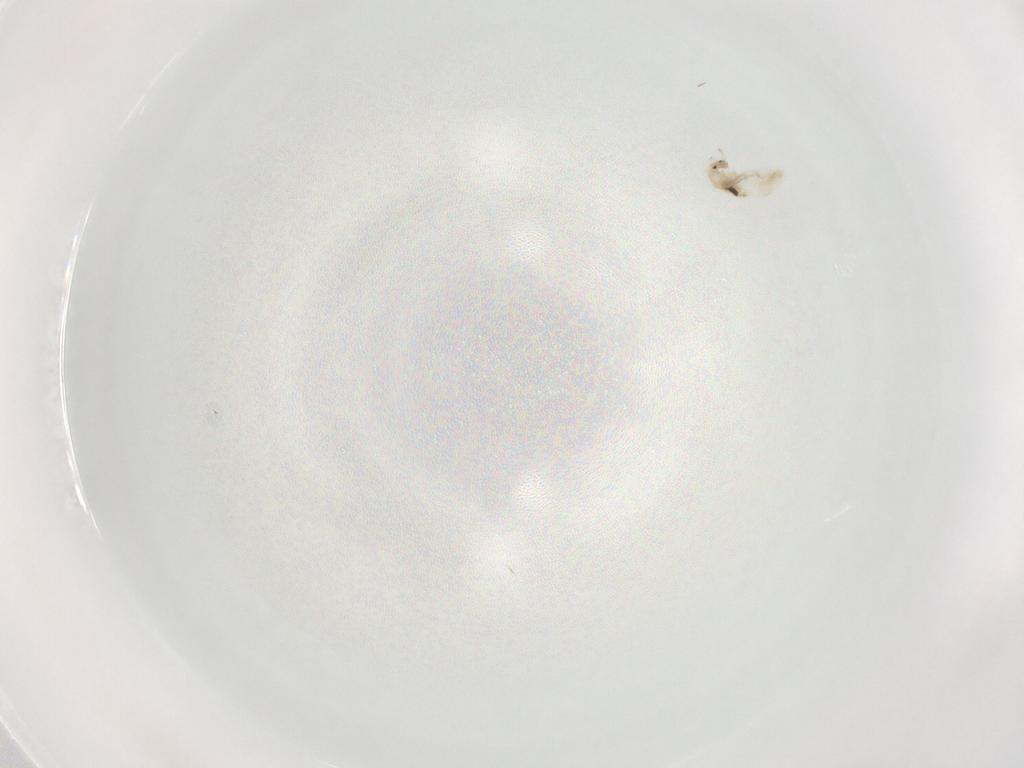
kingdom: Animalia
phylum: Arthropoda
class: Collembola
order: Entomobryomorpha
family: Entomobryidae
